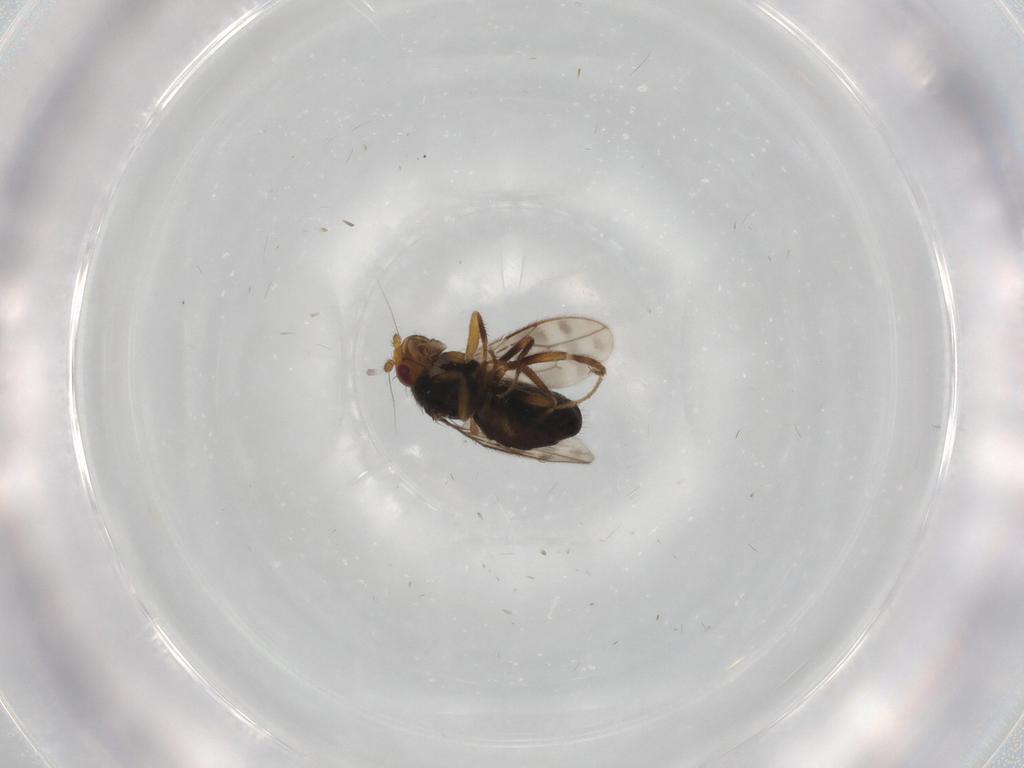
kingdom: Animalia
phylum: Arthropoda
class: Insecta
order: Diptera
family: Sphaeroceridae
